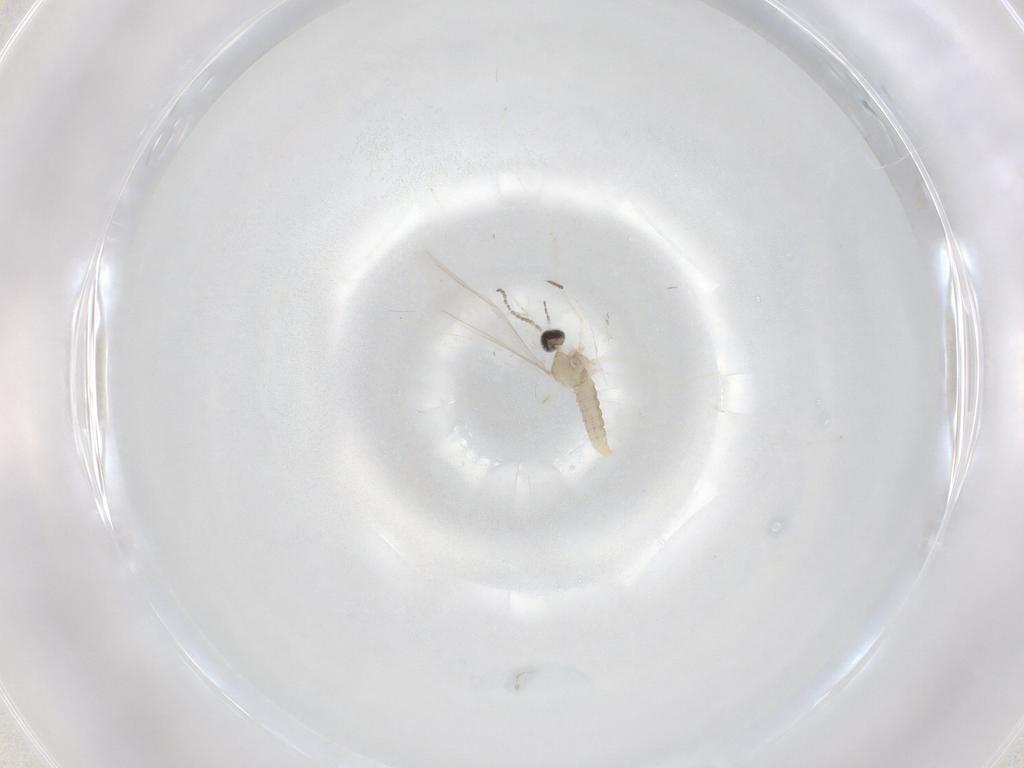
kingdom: Animalia
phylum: Arthropoda
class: Insecta
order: Diptera
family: Sciaridae
